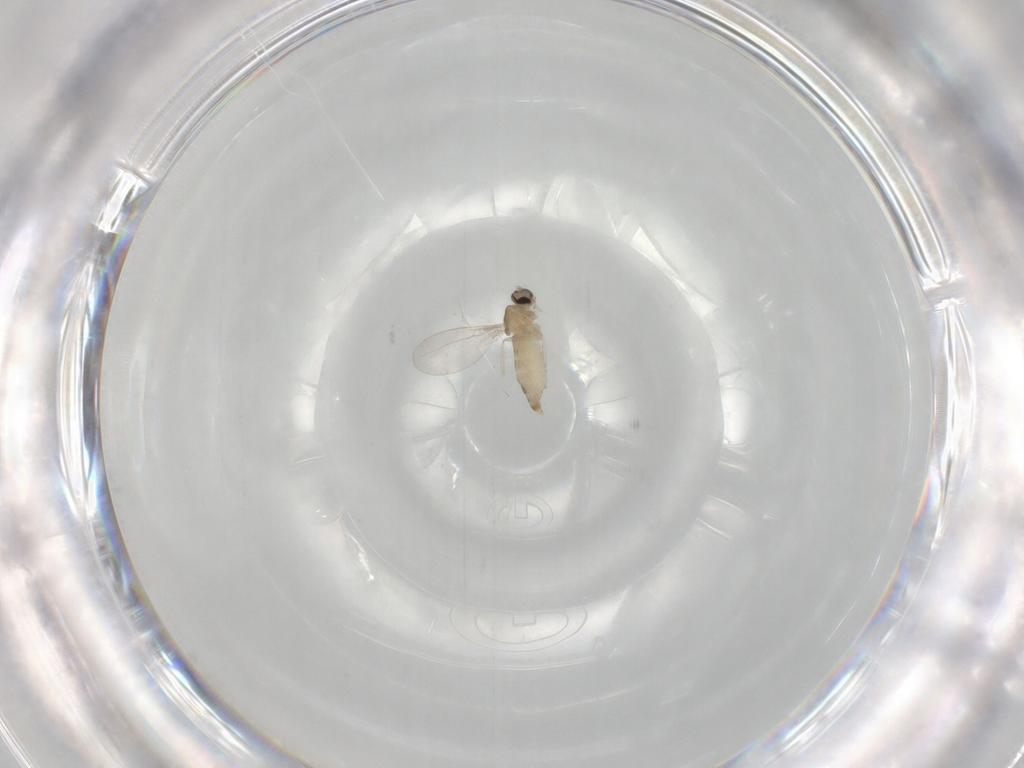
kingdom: Animalia
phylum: Arthropoda
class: Insecta
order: Diptera
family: Cecidomyiidae
